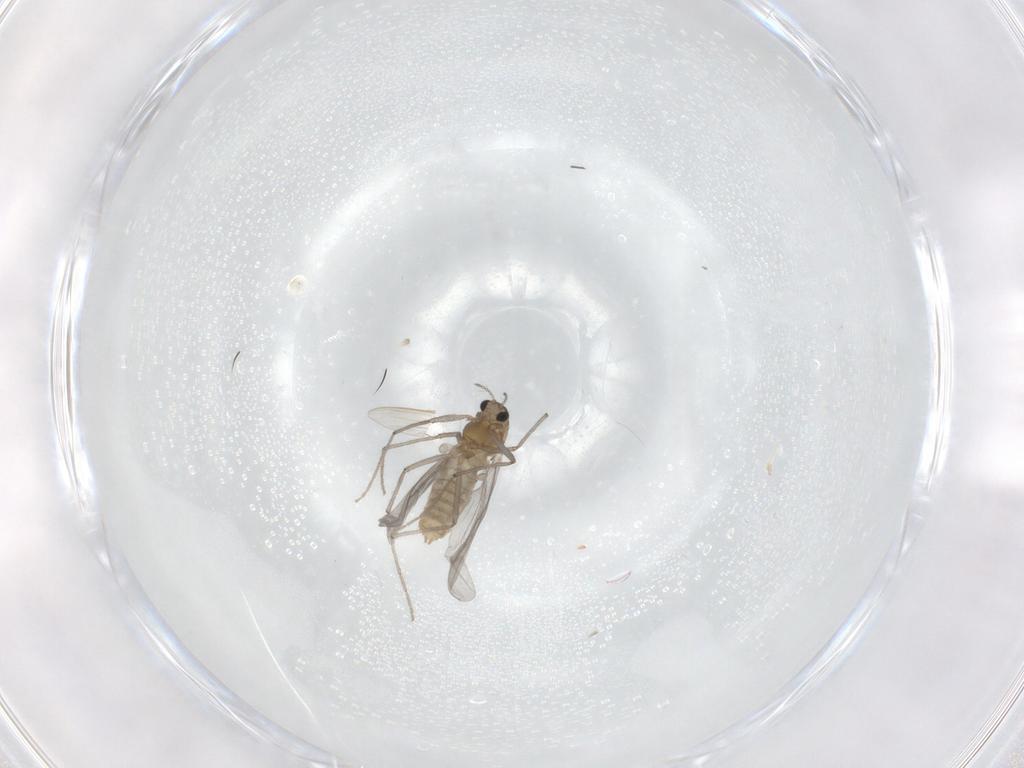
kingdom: Animalia
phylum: Arthropoda
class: Insecta
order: Diptera
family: Chironomidae
